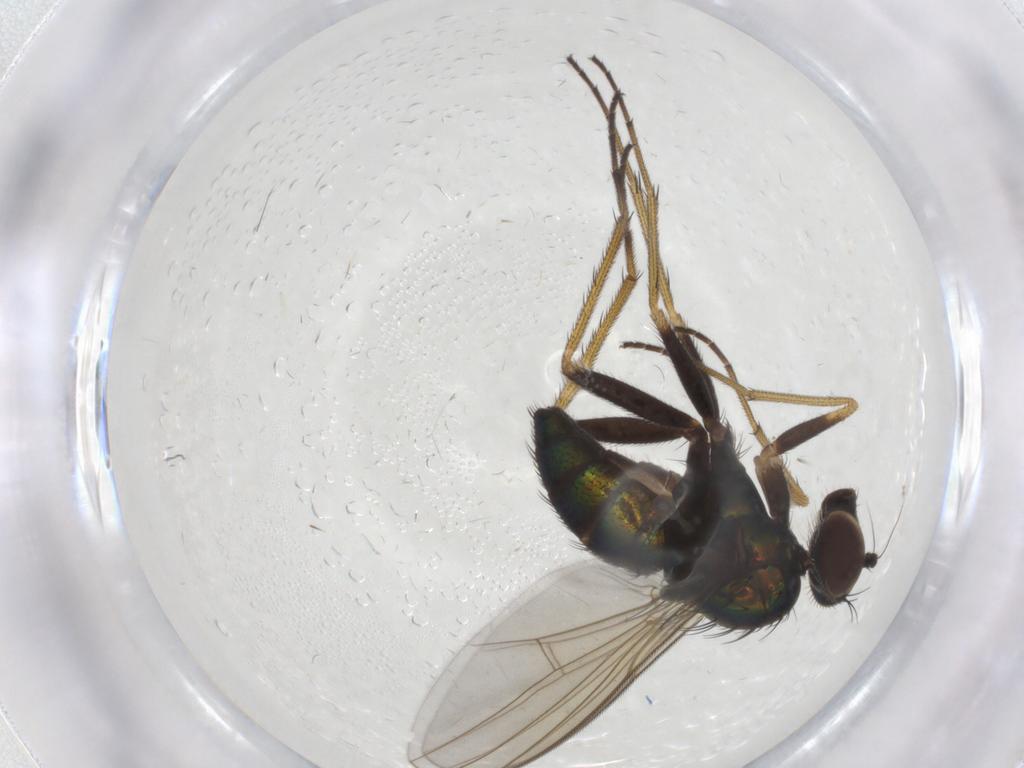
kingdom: Animalia
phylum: Arthropoda
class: Insecta
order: Diptera
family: Dolichopodidae
